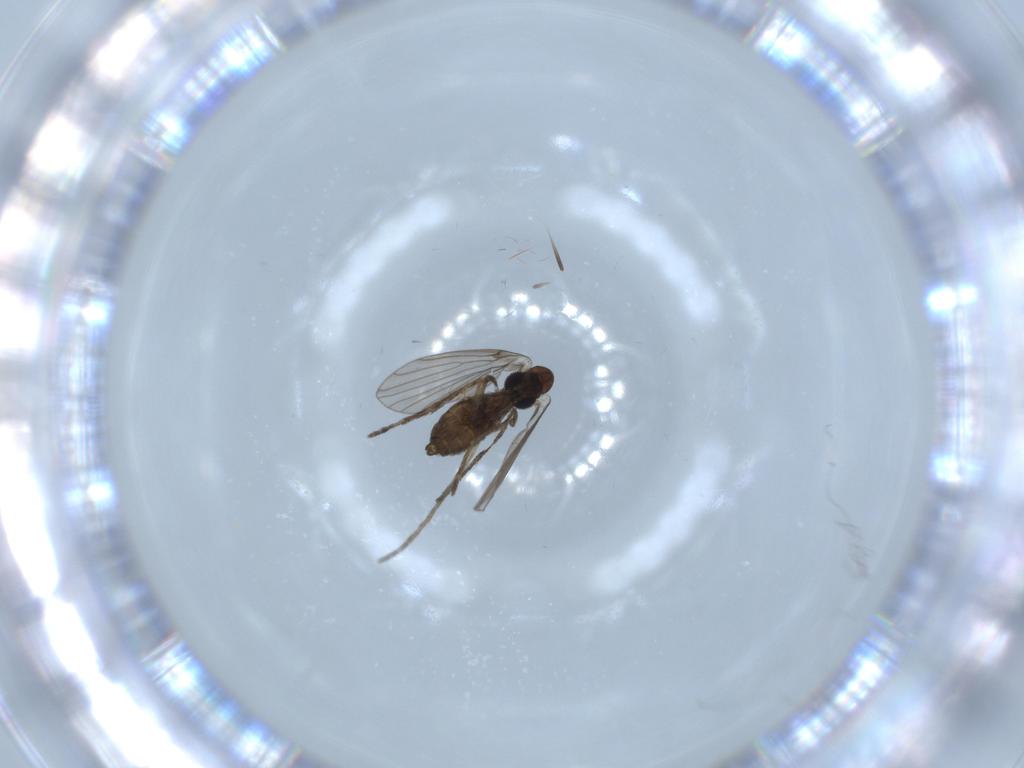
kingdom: Animalia
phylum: Arthropoda
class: Insecta
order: Diptera
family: Psychodidae
